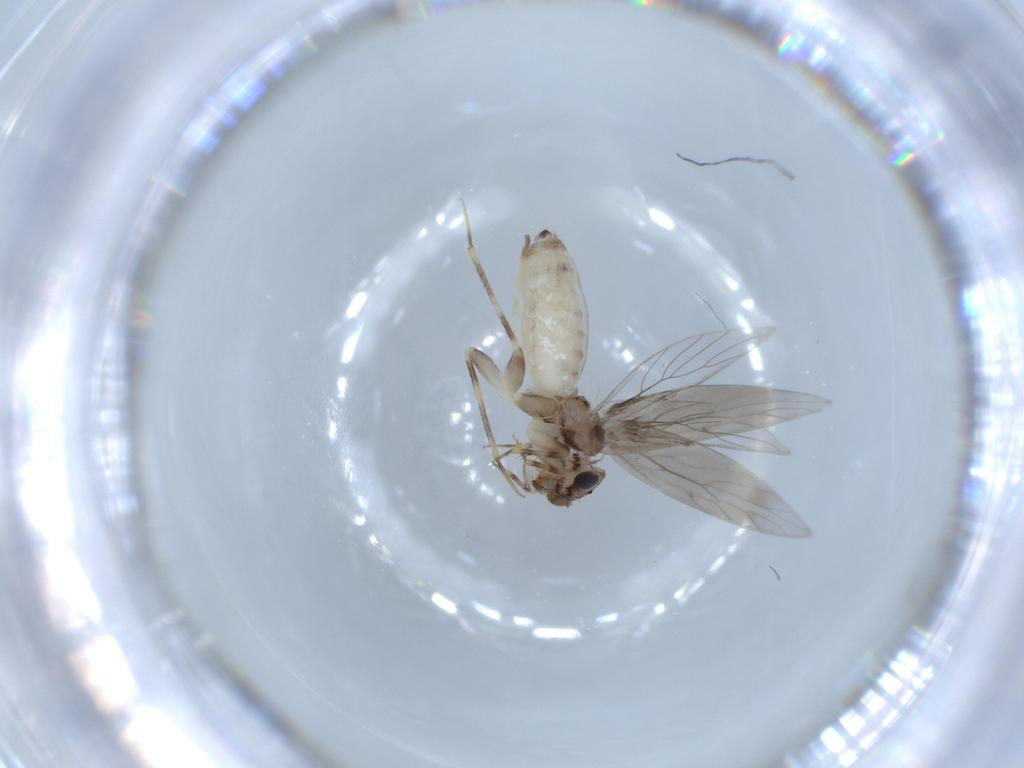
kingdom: Animalia
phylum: Arthropoda
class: Insecta
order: Psocodea
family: Lepidopsocidae
